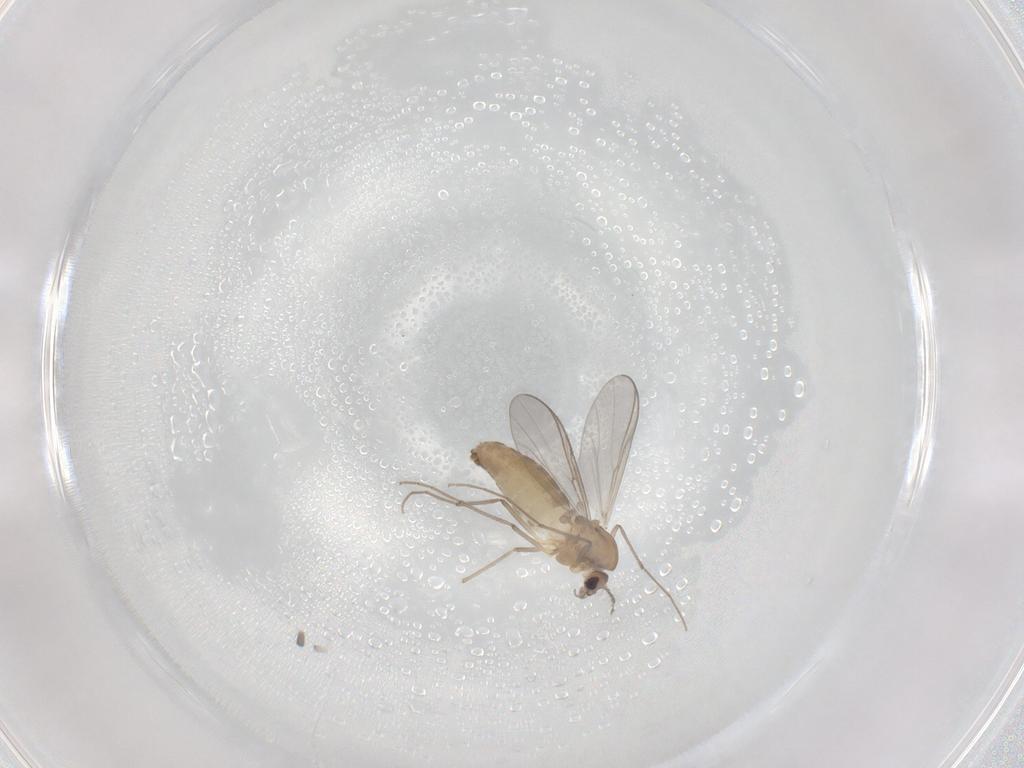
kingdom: Animalia
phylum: Arthropoda
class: Insecta
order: Diptera
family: Chironomidae
